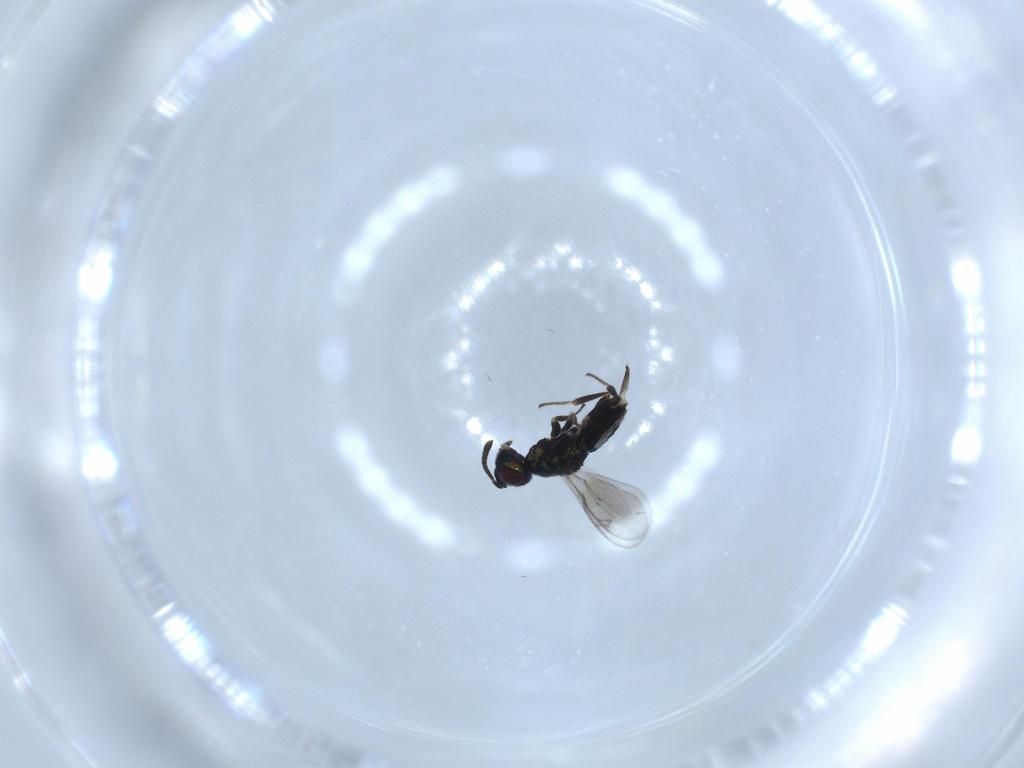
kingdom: Animalia
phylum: Arthropoda
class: Insecta
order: Hymenoptera
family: Eupelmidae
